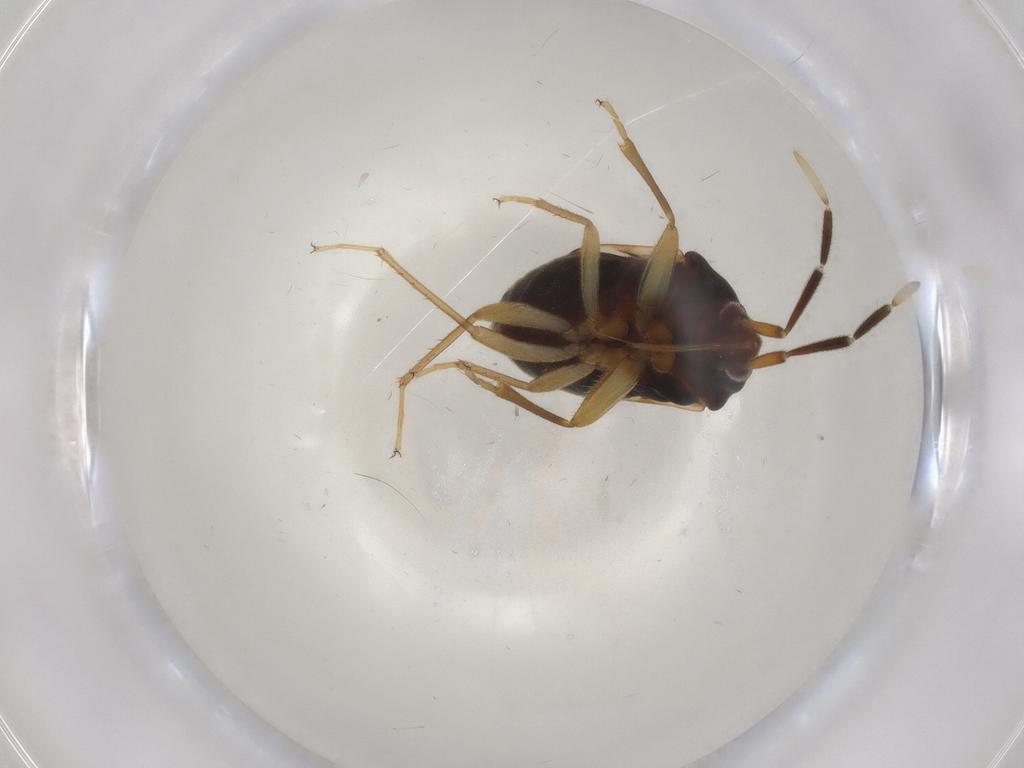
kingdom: Animalia
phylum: Arthropoda
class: Insecta
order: Hemiptera
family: Rhyparochromidae
